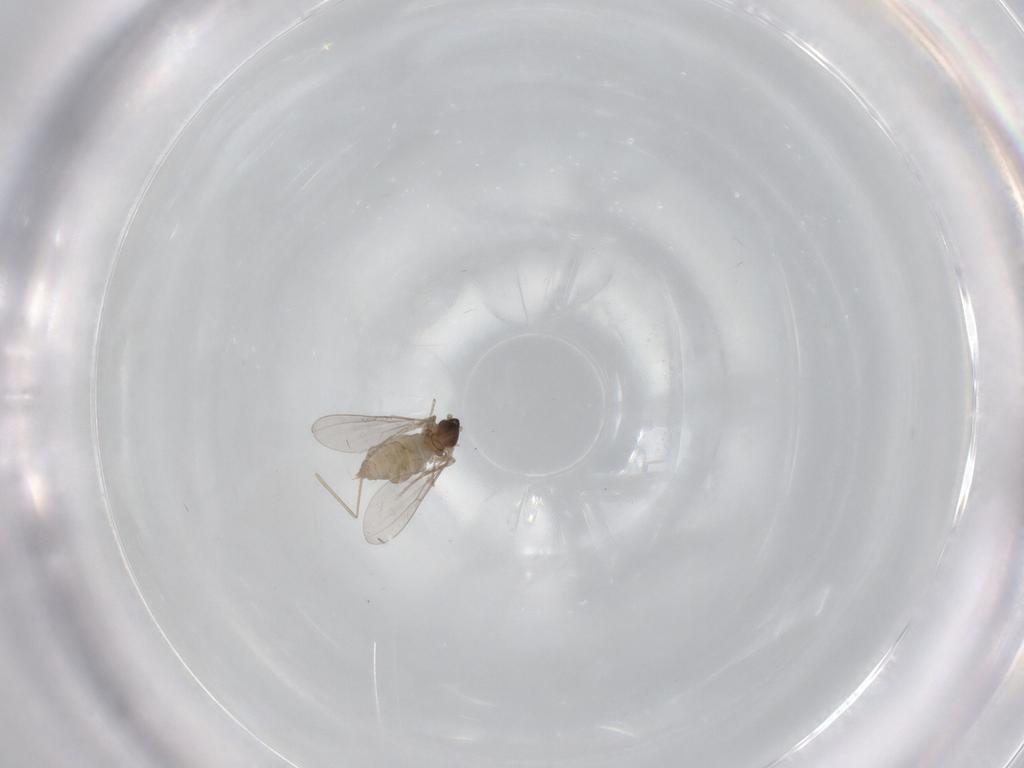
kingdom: Animalia
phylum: Arthropoda
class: Insecta
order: Diptera
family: Cecidomyiidae
